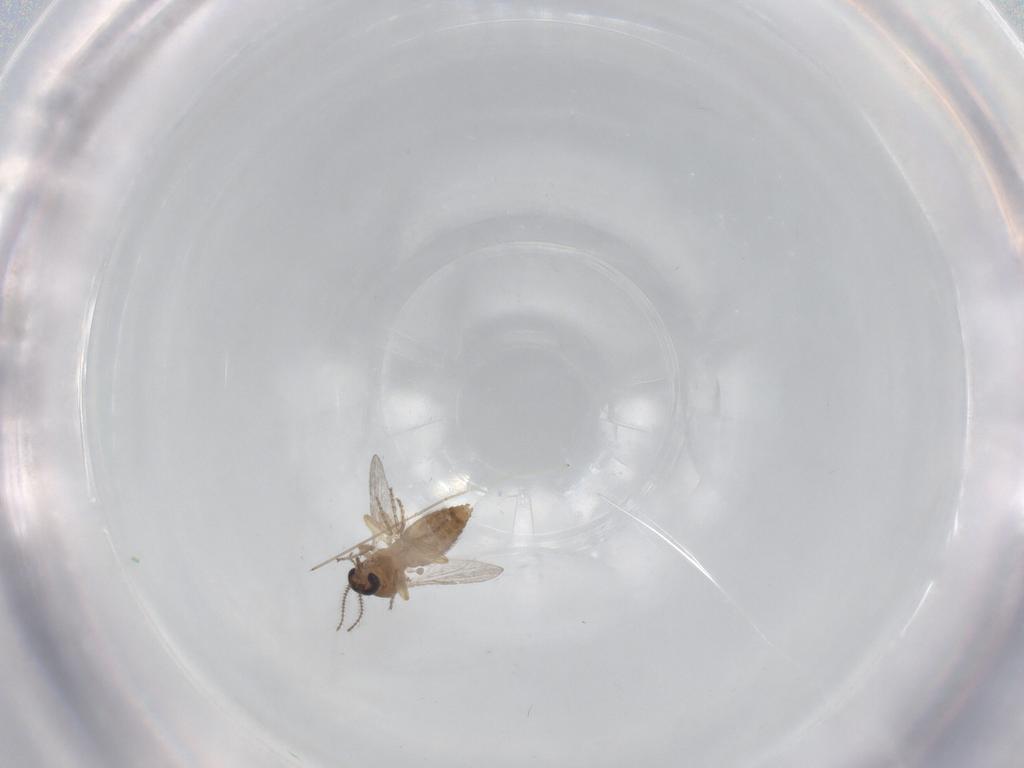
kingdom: Animalia
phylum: Arthropoda
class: Insecta
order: Diptera
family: Ceratopogonidae
